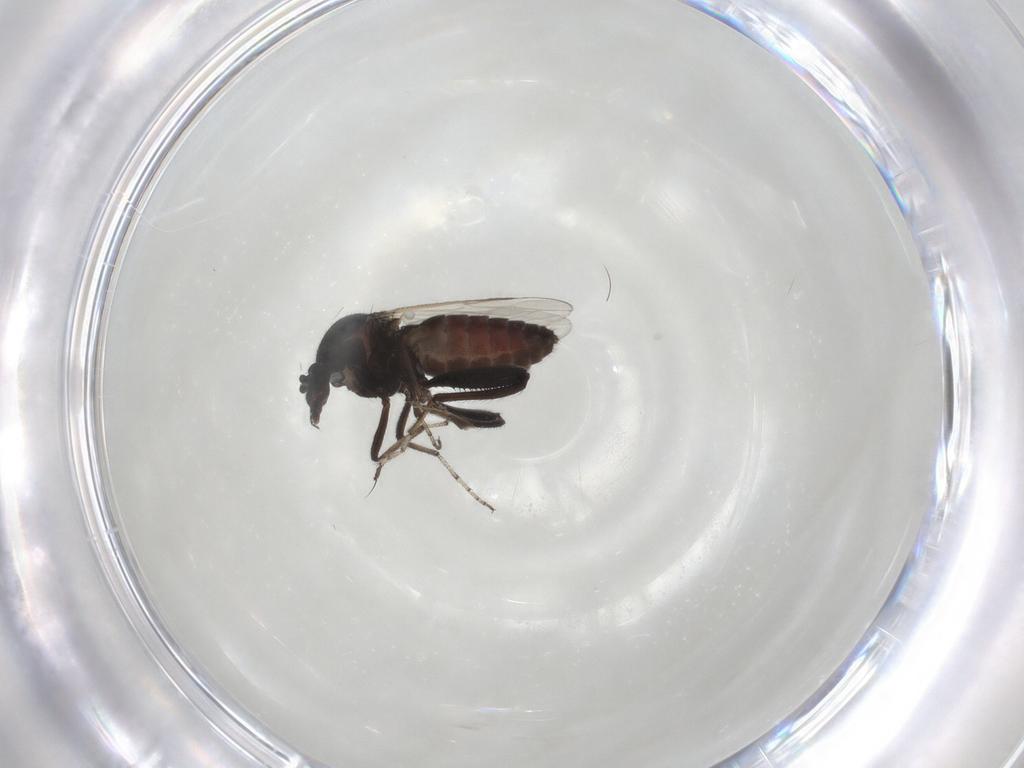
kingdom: Animalia
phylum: Arthropoda
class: Insecta
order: Diptera
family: Ceratopogonidae
